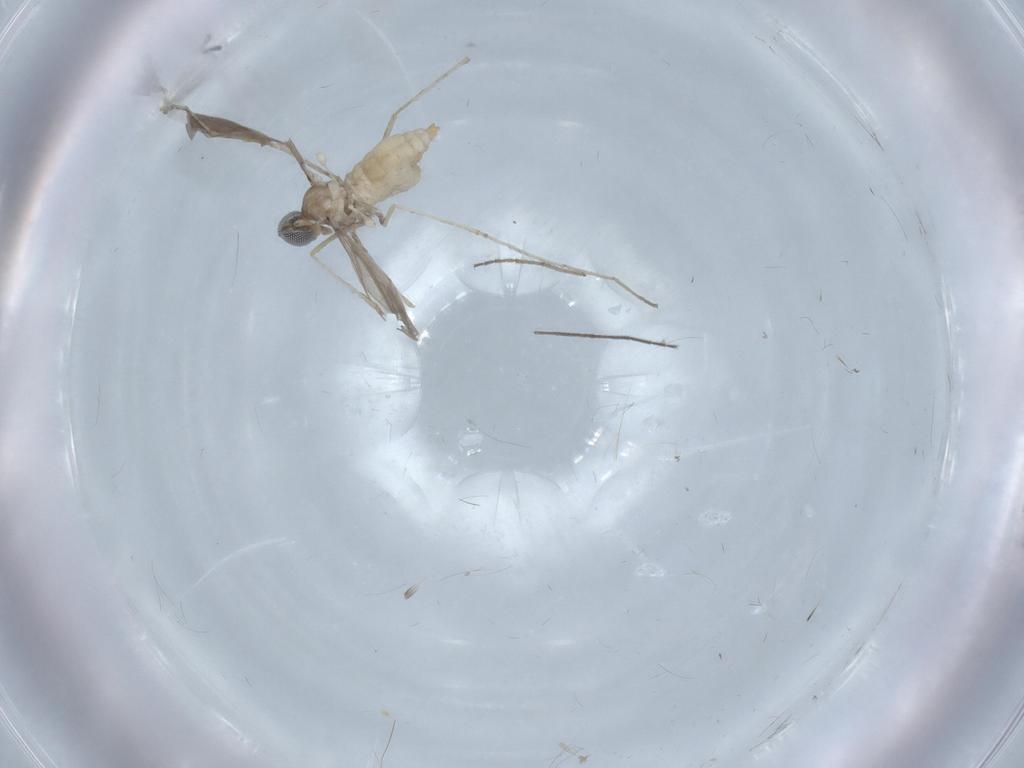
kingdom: Animalia
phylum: Arthropoda
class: Insecta
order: Diptera
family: Cecidomyiidae
